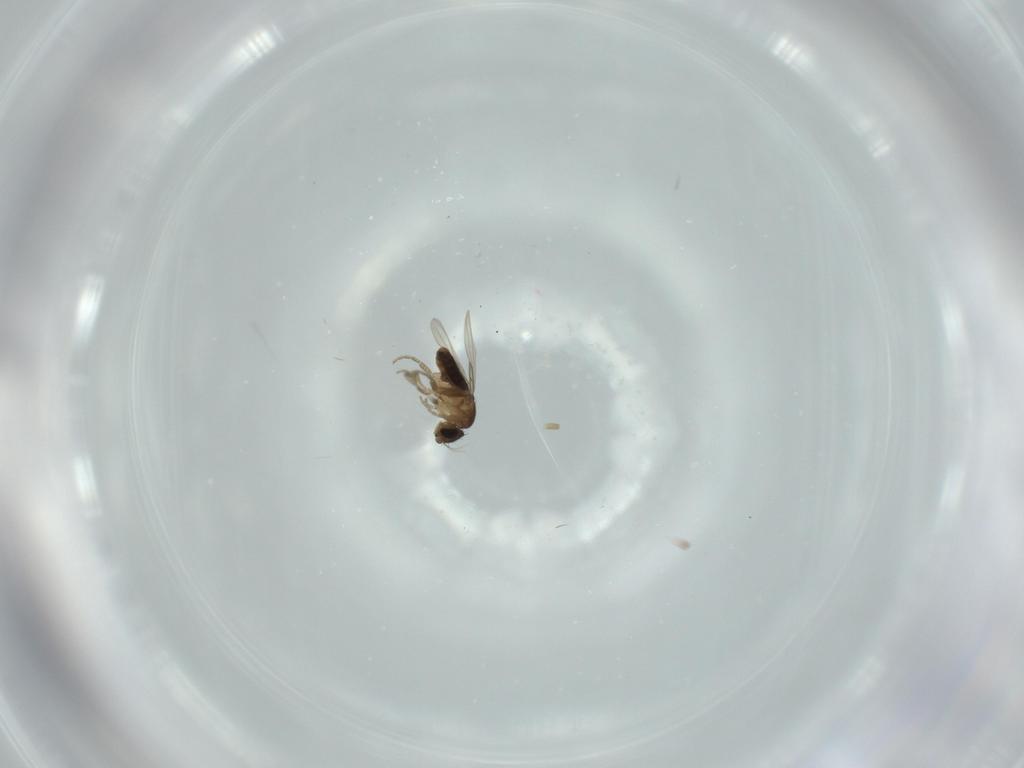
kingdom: Animalia
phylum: Arthropoda
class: Insecta
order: Diptera
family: Phoridae
